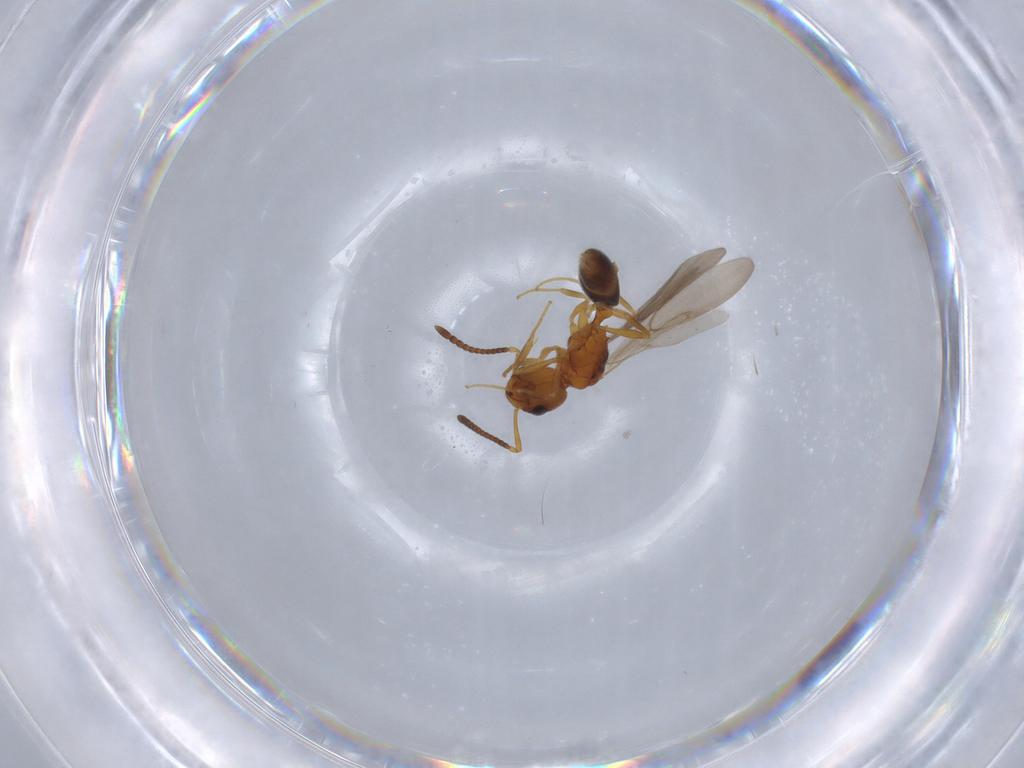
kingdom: Animalia
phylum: Arthropoda
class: Insecta
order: Hymenoptera
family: Formicidae
